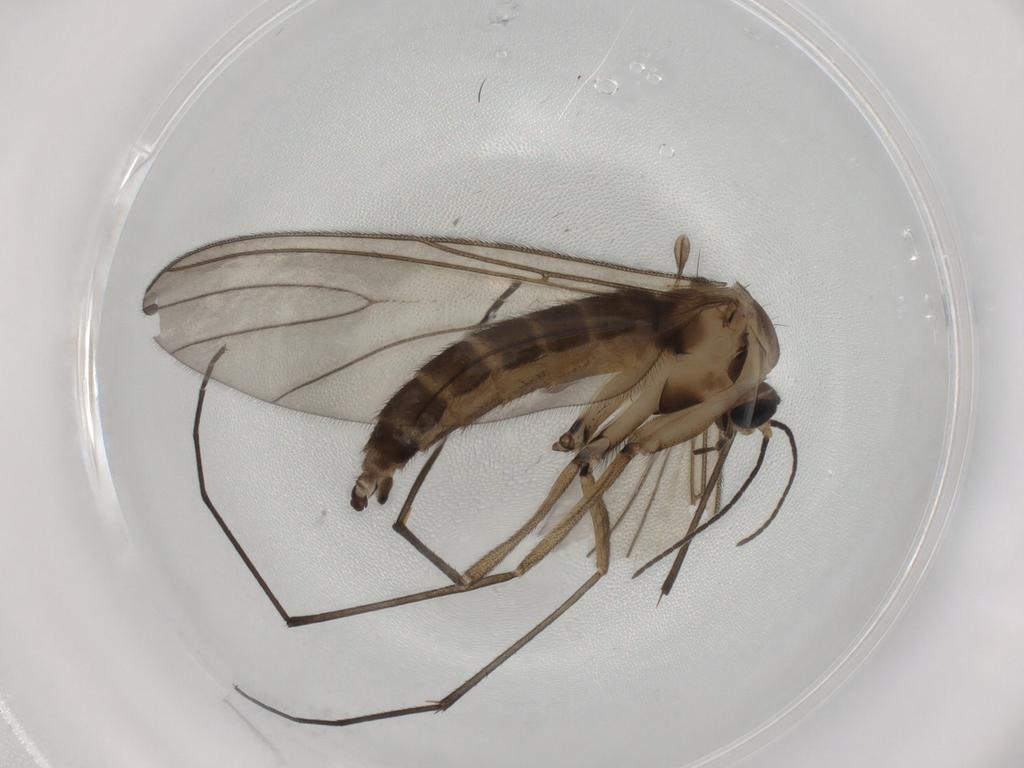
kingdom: Animalia
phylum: Arthropoda
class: Insecta
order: Diptera
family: Sciaridae
